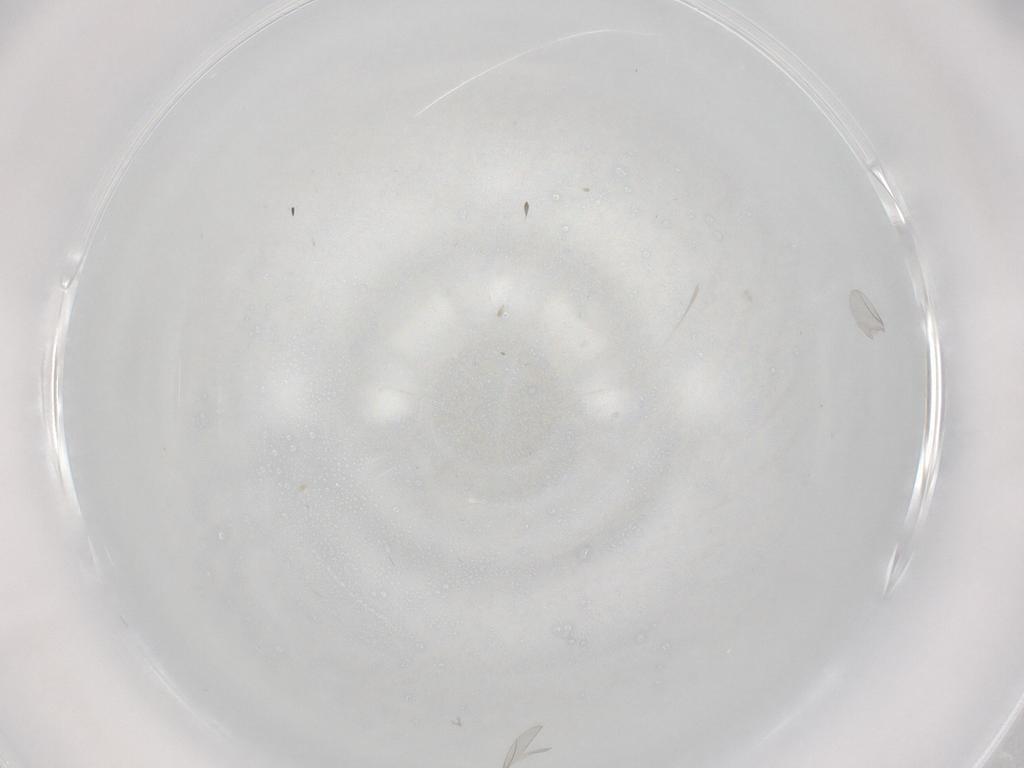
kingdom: Animalia
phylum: Arthropoda
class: Insecta
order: Diptera
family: Cecidomyiidae
